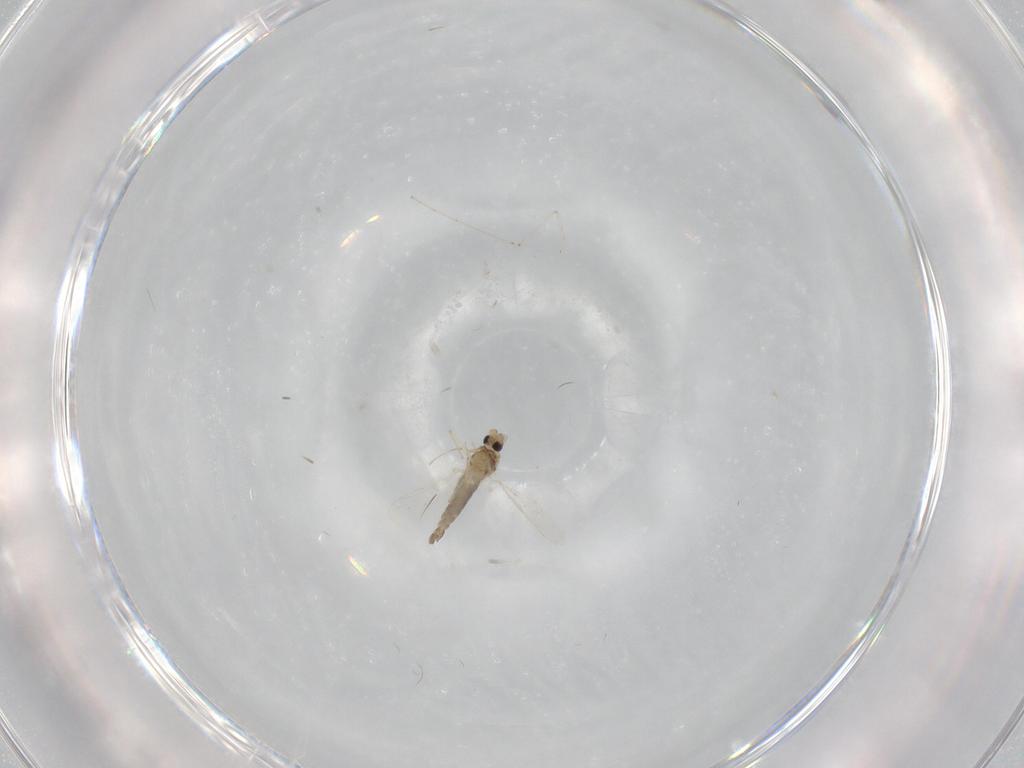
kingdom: Animalia
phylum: Arthropoda
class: Insecta
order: Diptera
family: Chironomidae
